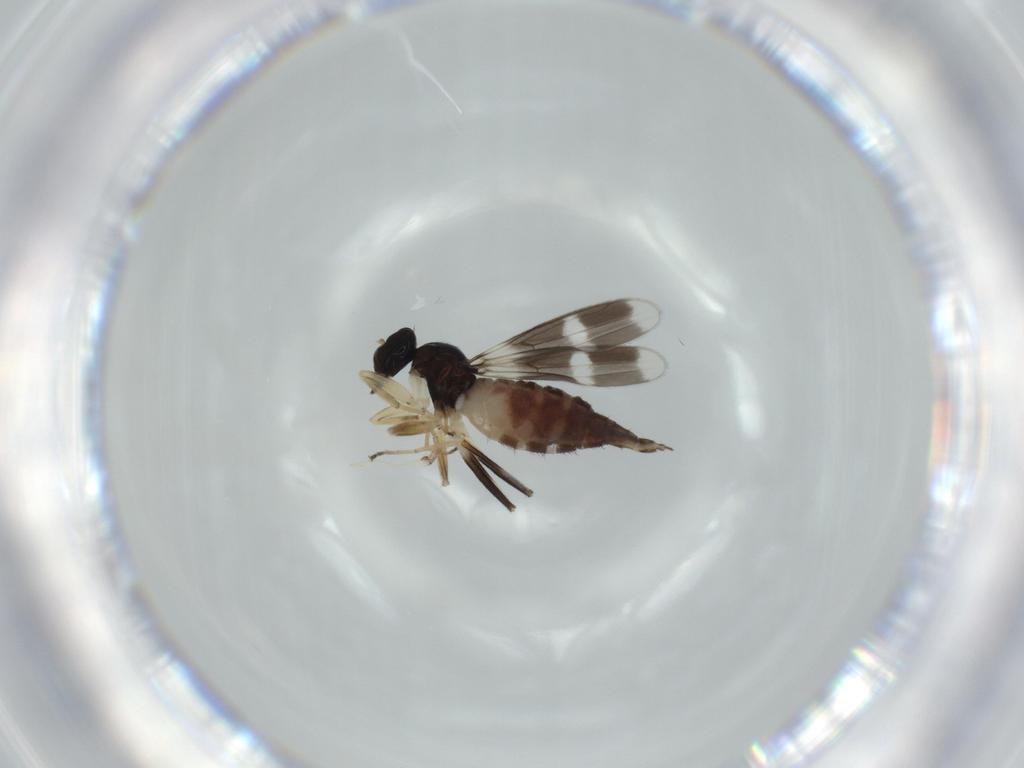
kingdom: Animalia
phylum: Arthropoda
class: Insecta
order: Diptera
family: Hybotidae
